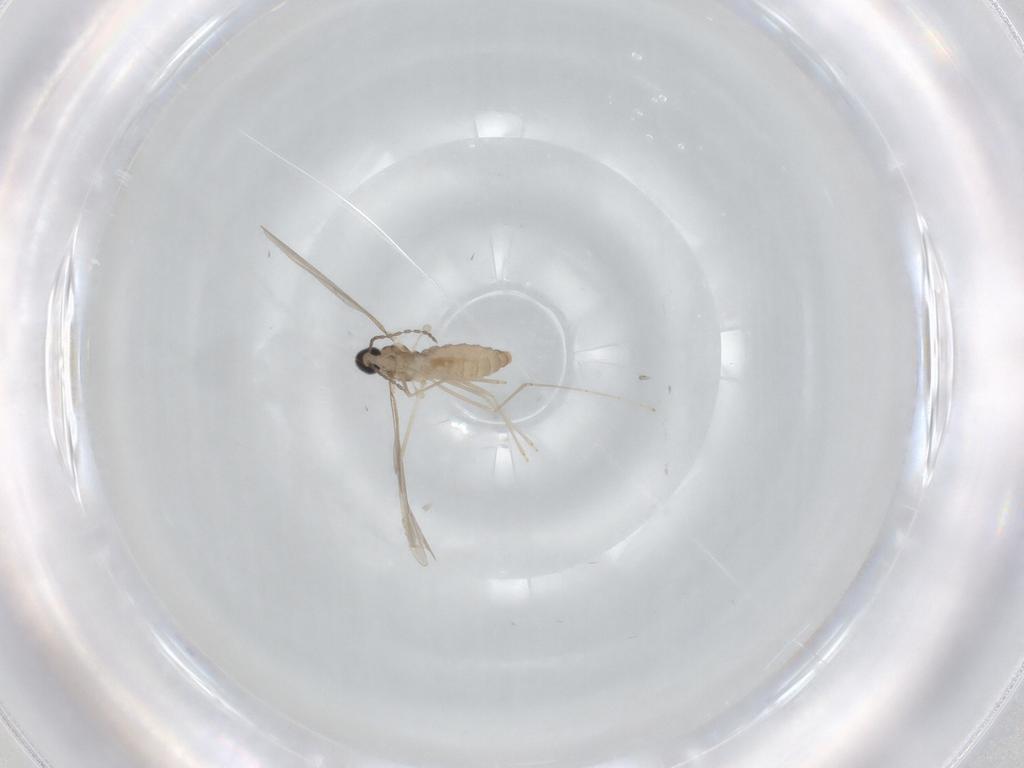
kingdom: Animalia
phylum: Arthropoda
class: Insecta
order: Diptera
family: Cecidomyiidae
